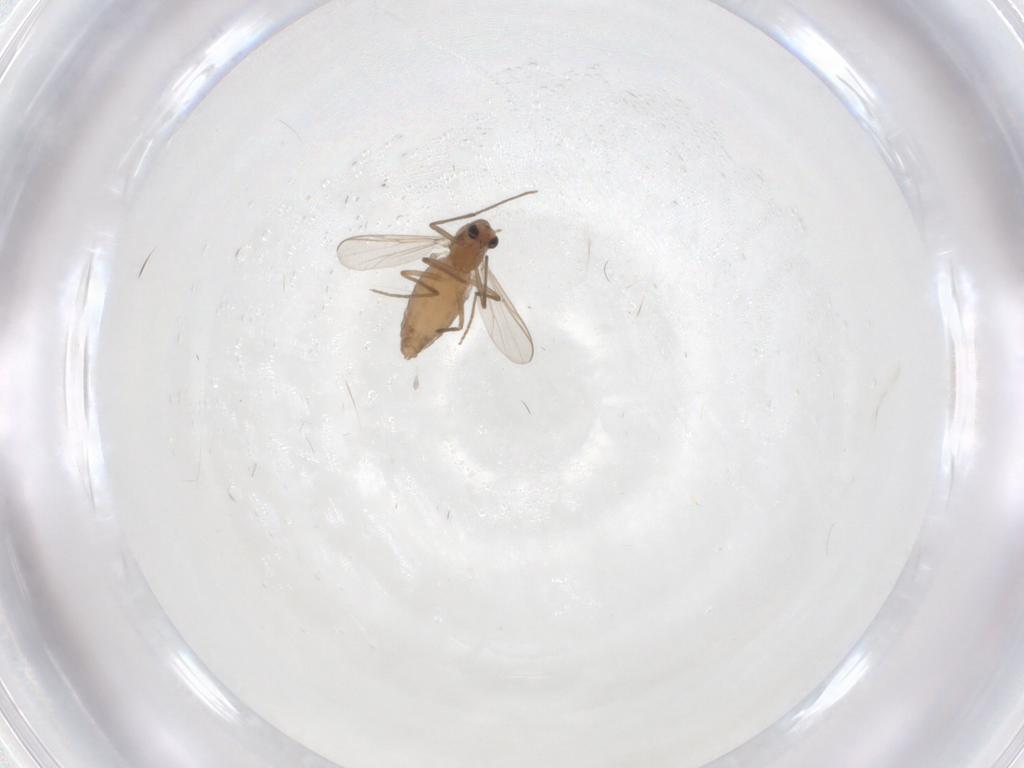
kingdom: Animalia
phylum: Arthropoda
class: Insecta
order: Diptera
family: Chironomidae
